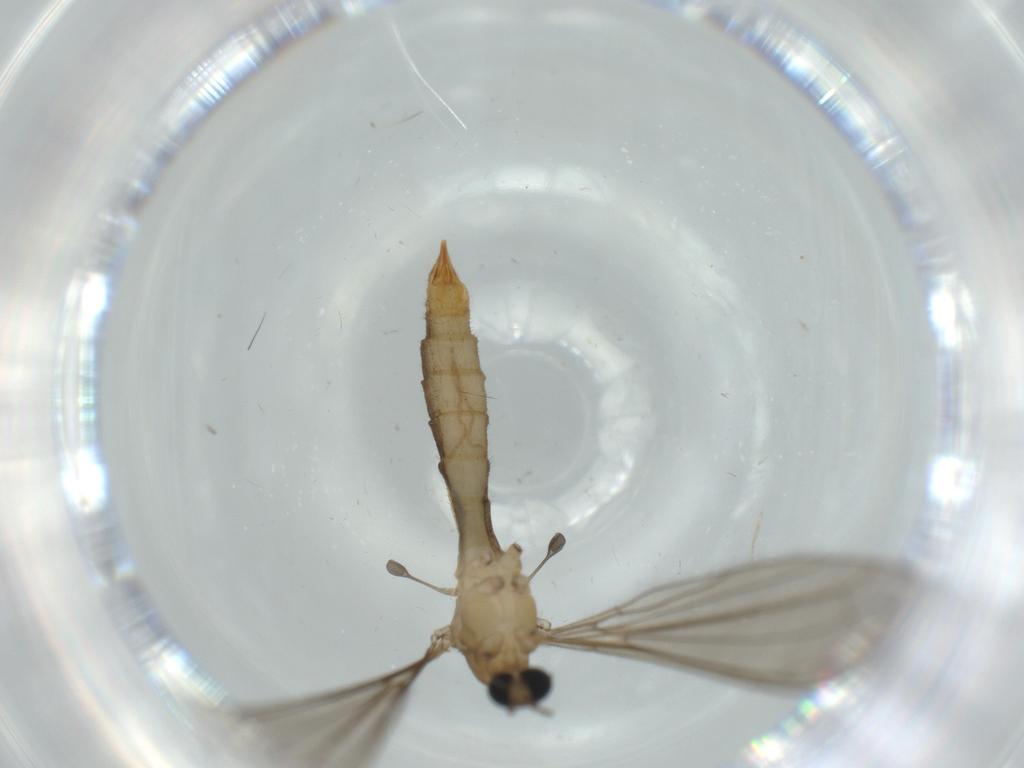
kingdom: Animalia
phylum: Arthropoda
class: Insecta
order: Diptera
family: Limoniidae
